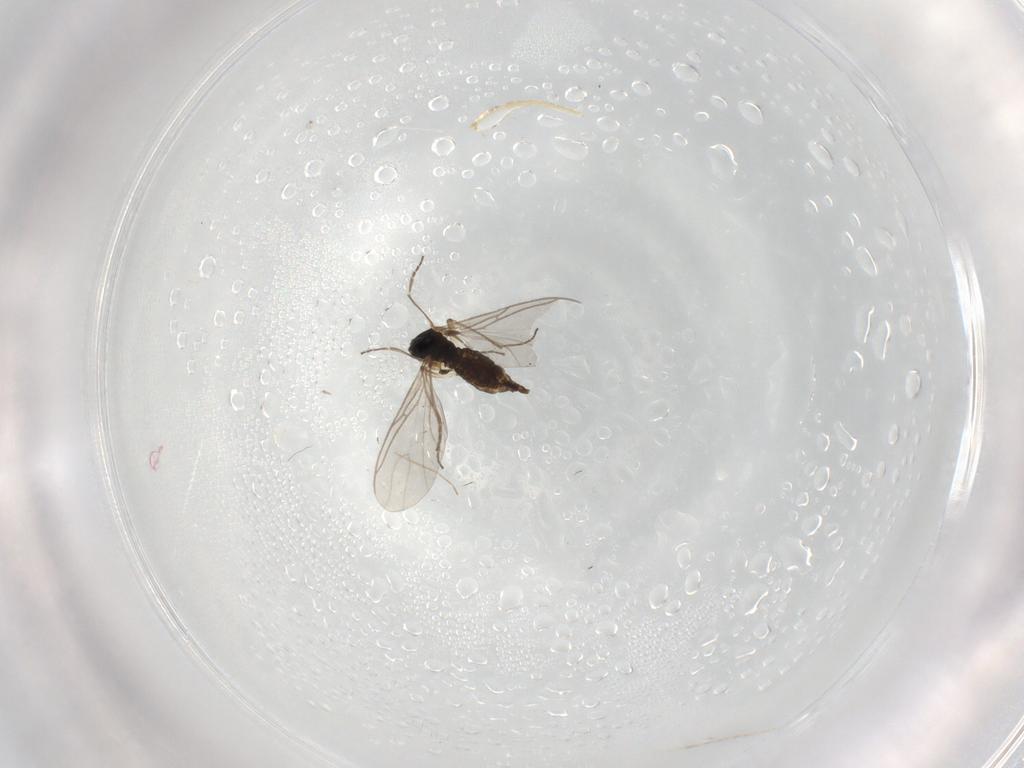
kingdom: Animalia
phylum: Arthropoda
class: Insecta
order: Diptera
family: Sciaridae
